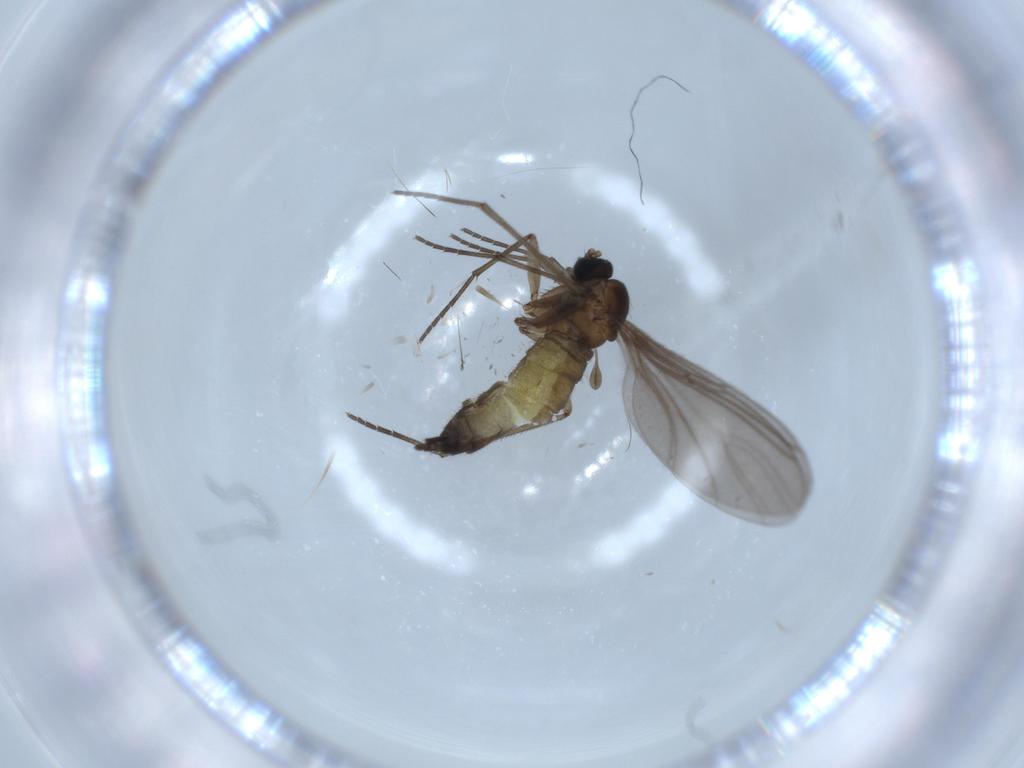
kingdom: Animalia
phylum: Arthropoda
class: Insecta
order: Diptera
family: Sciaridae
